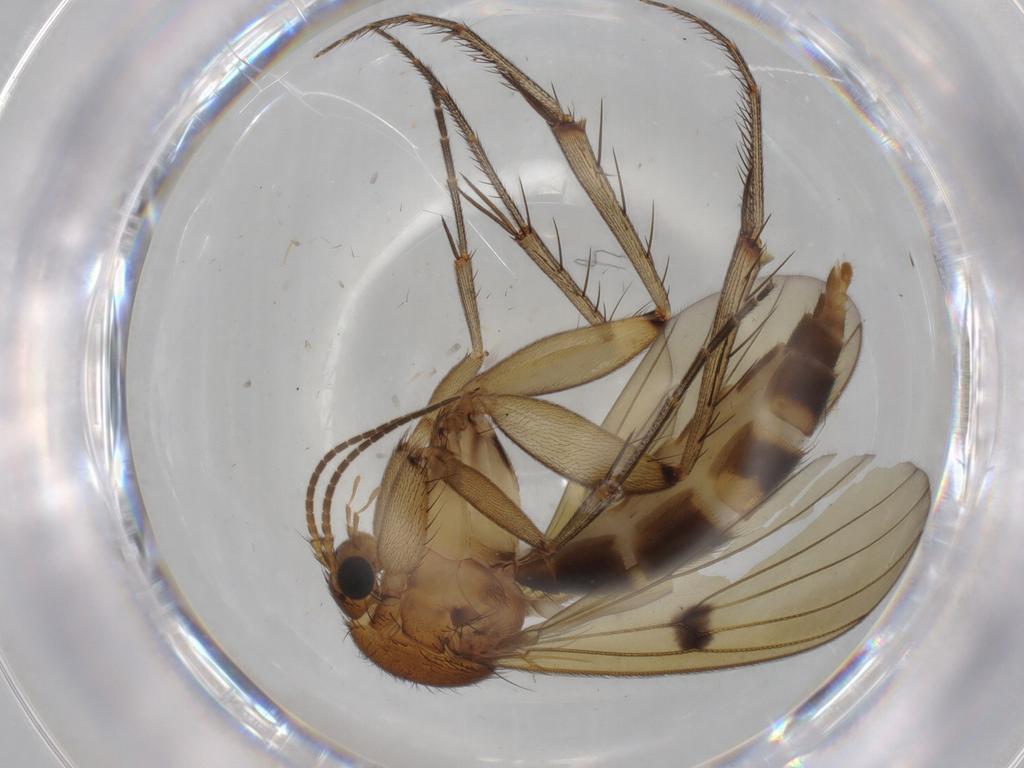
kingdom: Animalia
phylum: Arthropoda
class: Insecta
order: Diptera
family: Mycetophilidae
